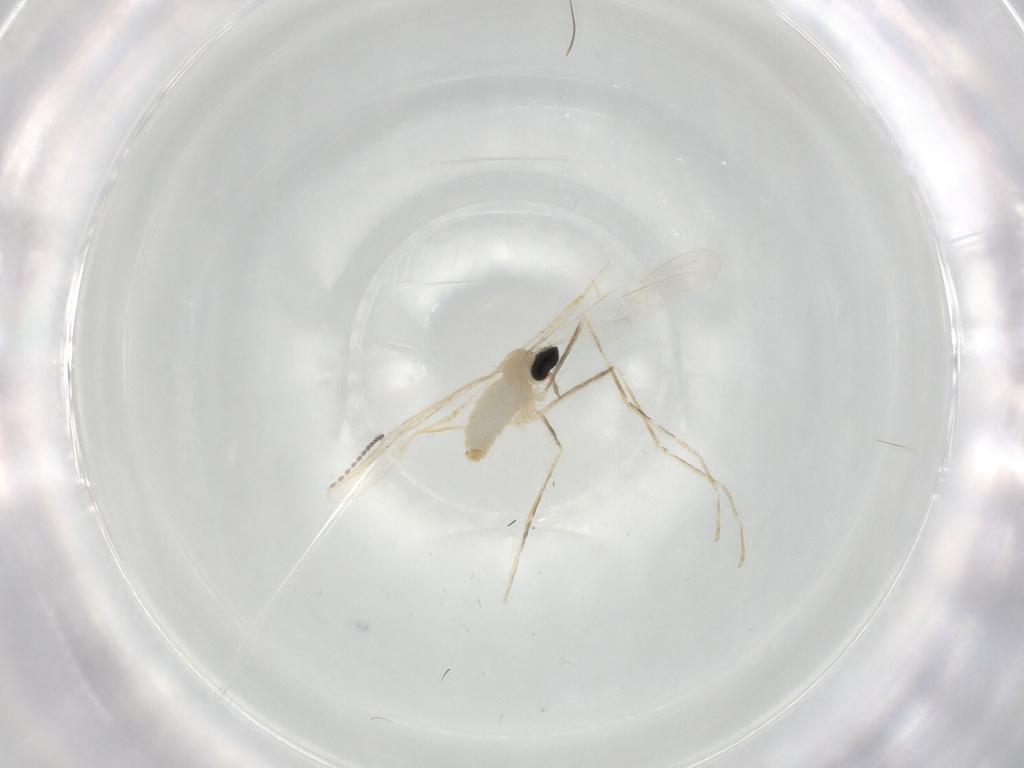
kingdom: Animalia
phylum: Arthropoda
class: Insecta
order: Diptera
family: Cecidomyiidae
